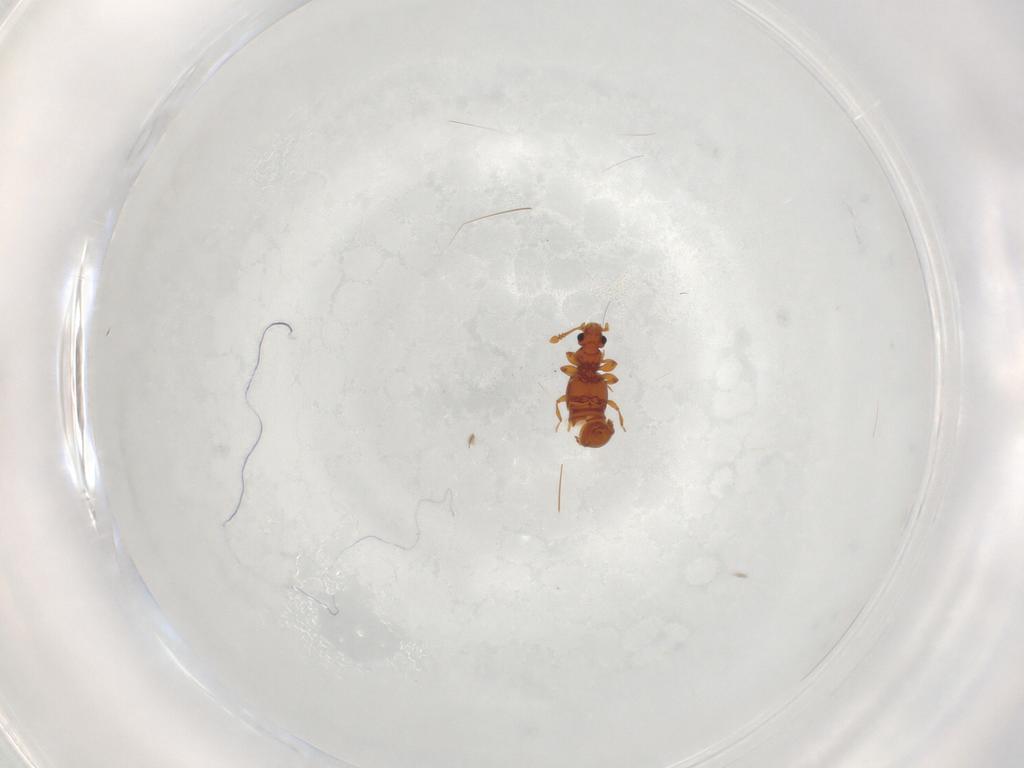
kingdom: Animalia
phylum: Arthropoda
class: Insecta
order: Coleoptera
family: Staphylinidae
